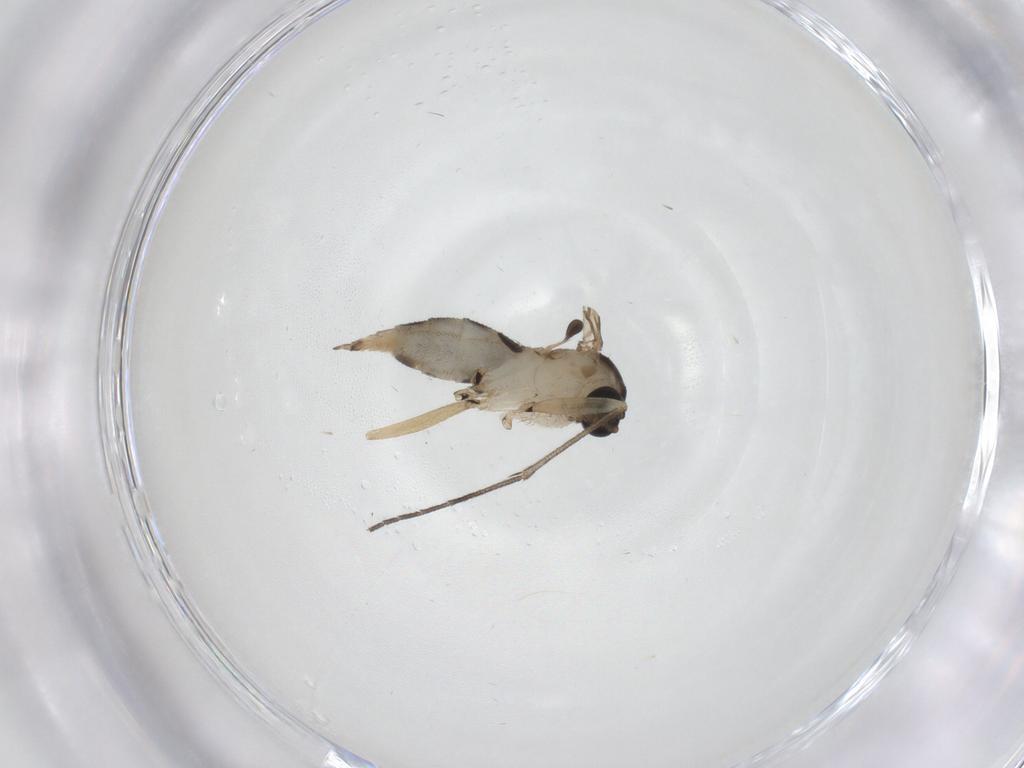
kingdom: Animalia
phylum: Arthropoda
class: Insecta
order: Diptera
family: Sciaridae
